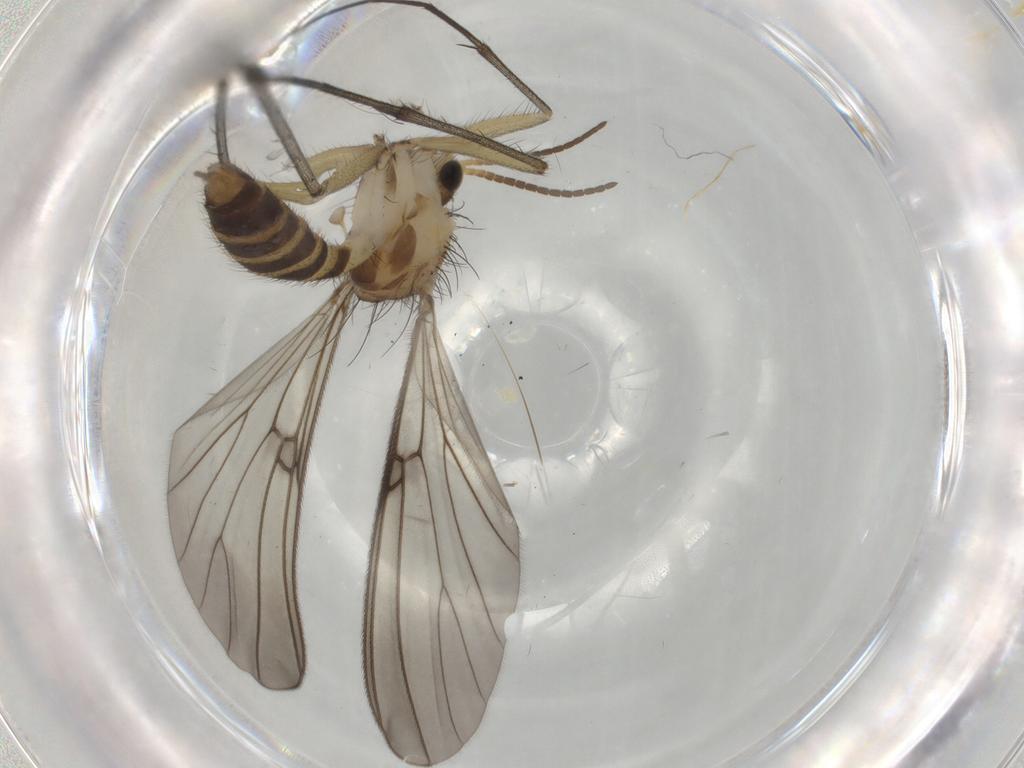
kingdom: Animalia
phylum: Arthropoda
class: Insecta
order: Diptera
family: Mycetophilidae
